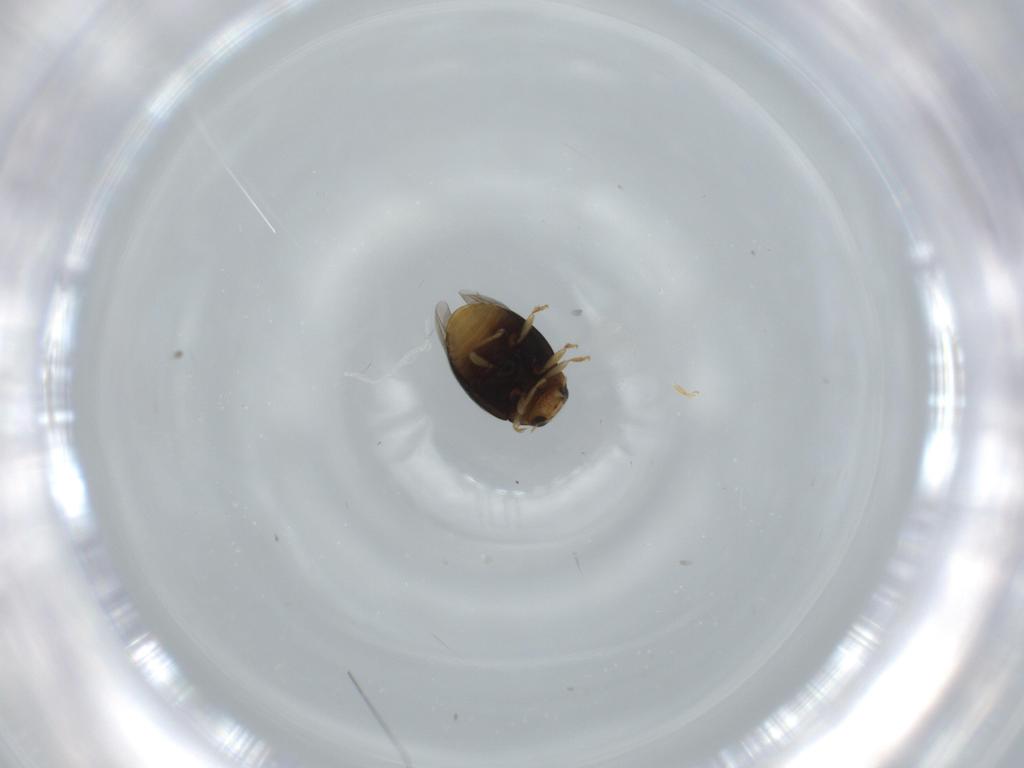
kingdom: Animalia
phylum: Arthropoda
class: Insecta
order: Coleoptera
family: Coccinellidae
